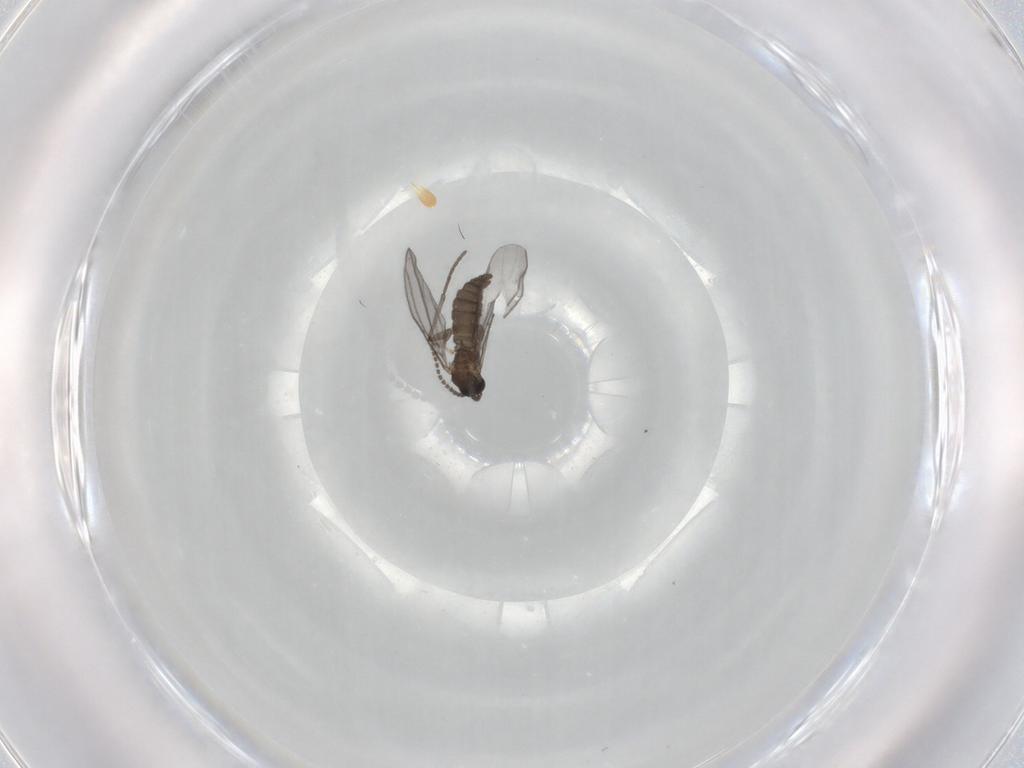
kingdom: Animalia
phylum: Arthropoda
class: Insecta
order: Diptera
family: Sciaridae
